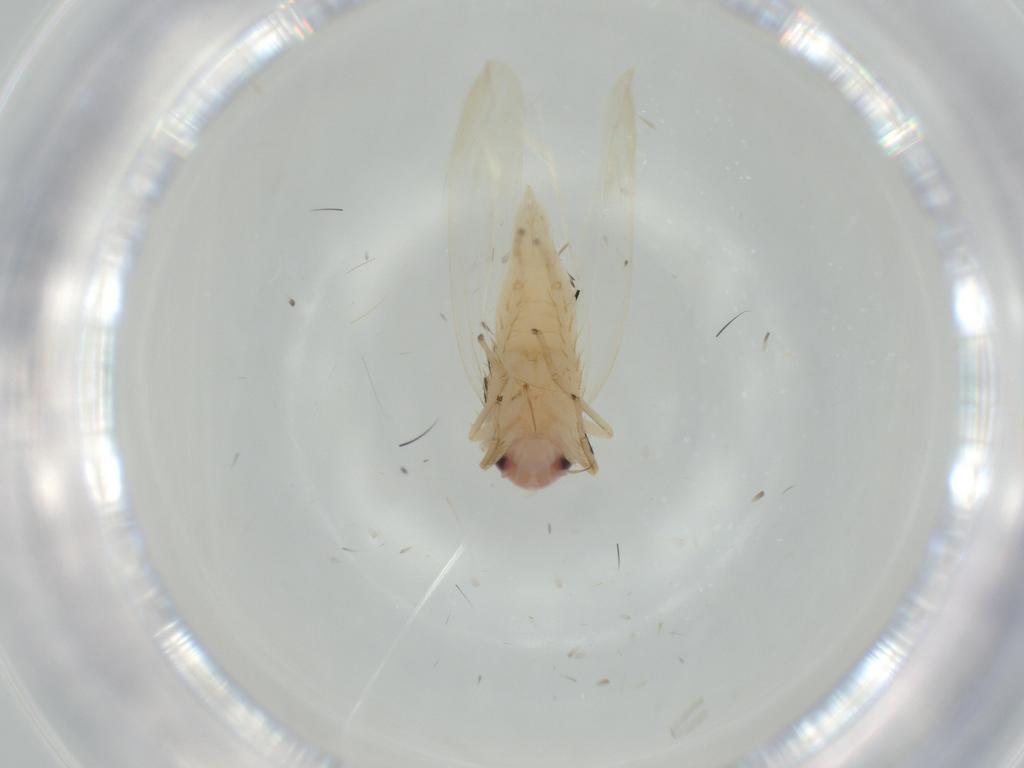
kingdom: Animalia
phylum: Arthropoda
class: Insecta
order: Hemiptera
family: Cicadellidae
